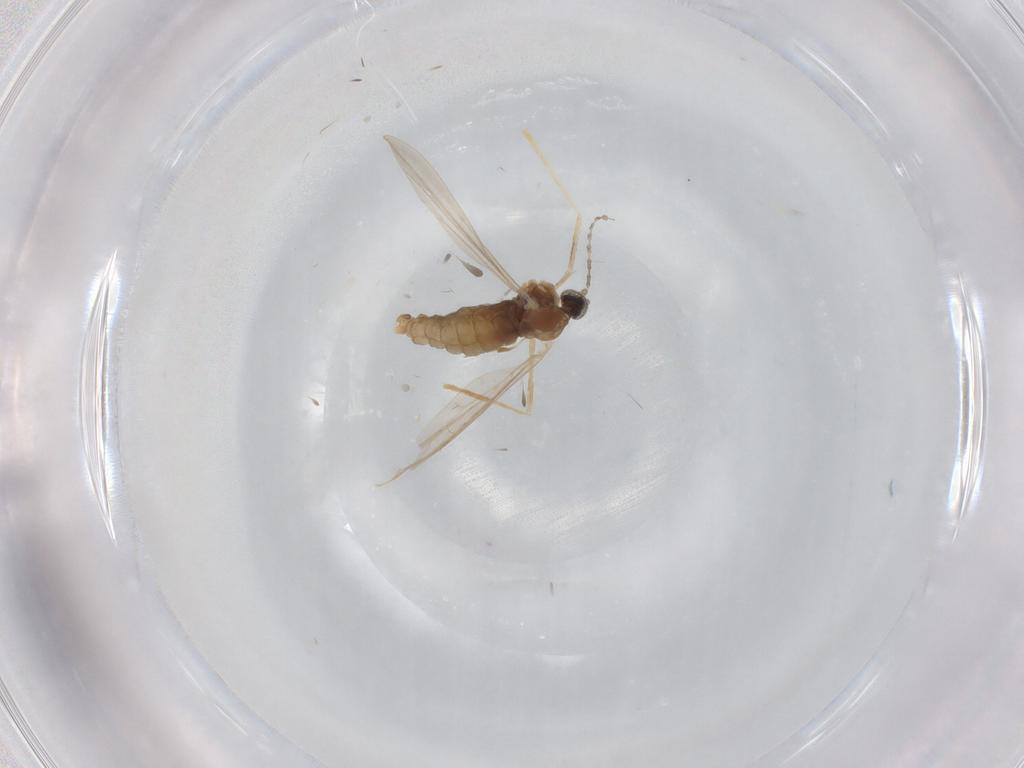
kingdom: Animalia
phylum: Arthropoda
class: Insecta
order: Diptera
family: Cecidomyiidae
